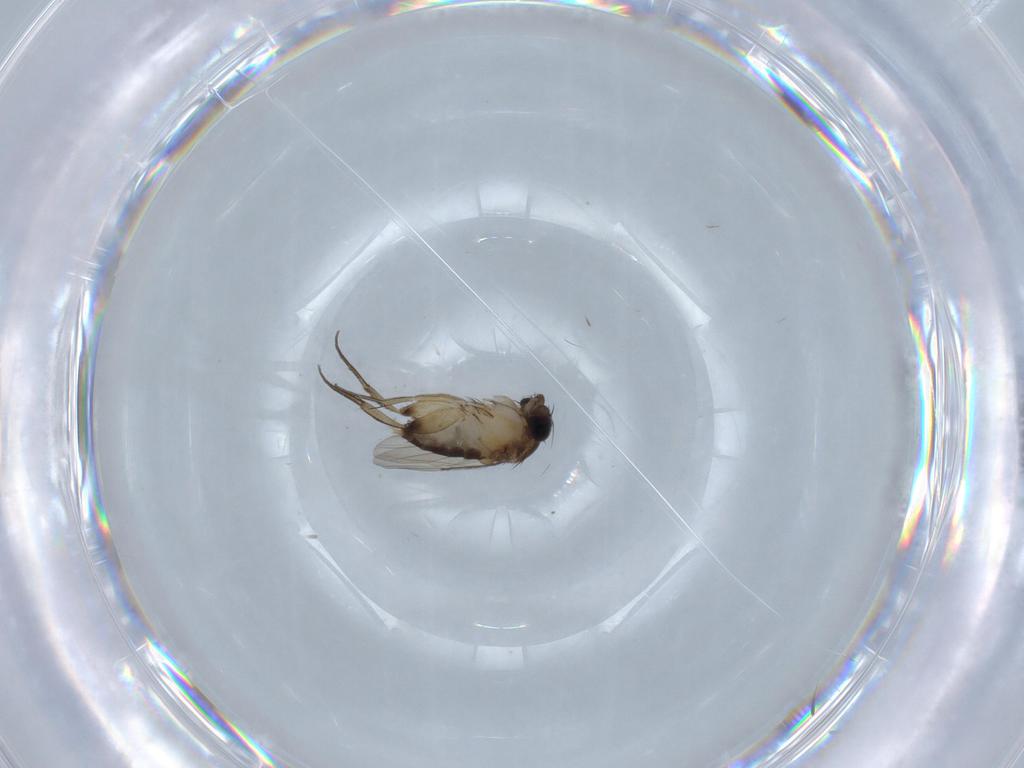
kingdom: Animalia
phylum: Arthropoda
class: Insecta
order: Diptera
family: Phoridae
